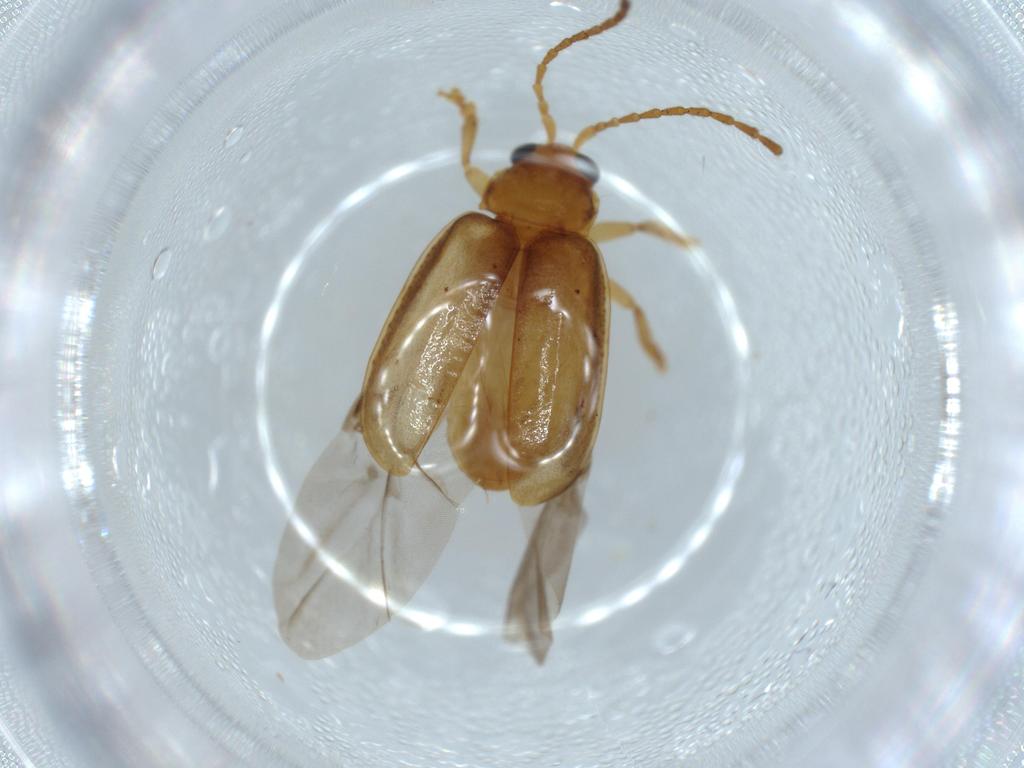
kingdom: Animalia
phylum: Arthropoda
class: Insecta
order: Coleoptera
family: Chrysomelidae
